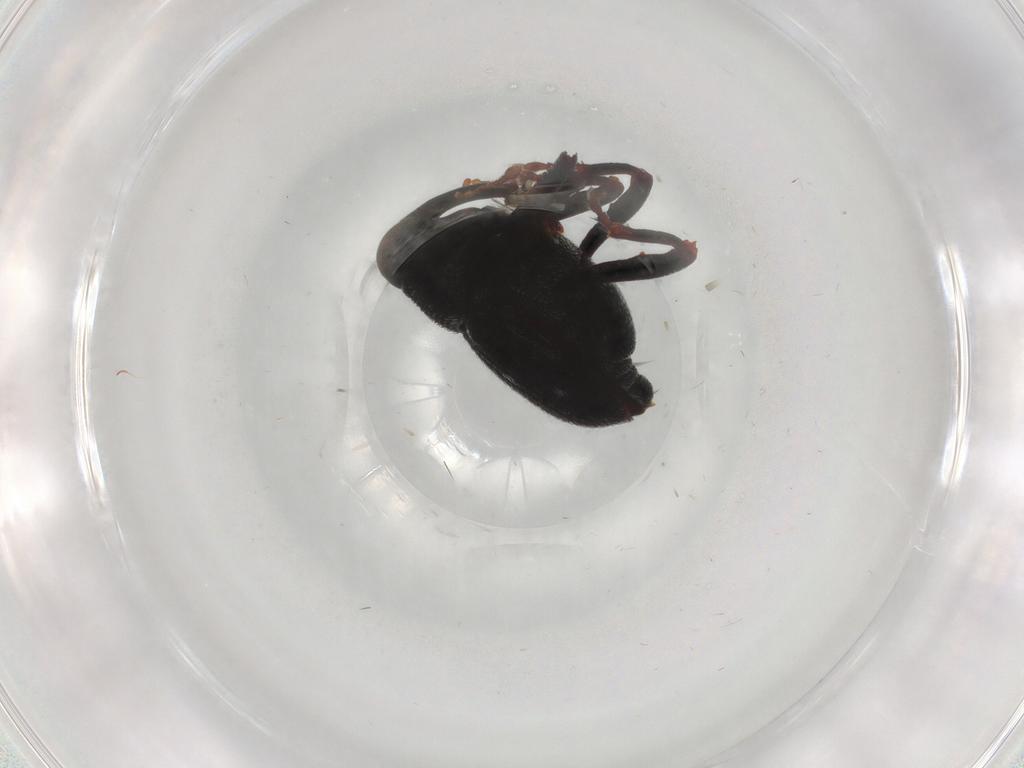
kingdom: Animalia
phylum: Arthropoda
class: Insecta
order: Coleoptera
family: Curculionidae
